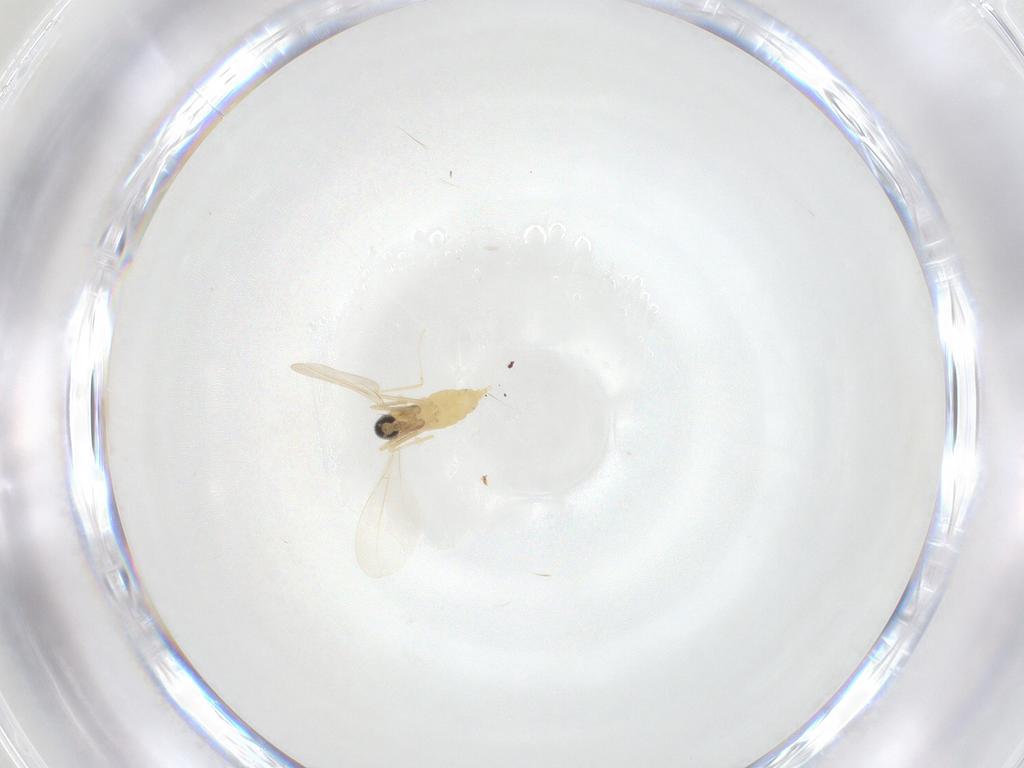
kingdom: Animalia
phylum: Arthropoda
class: Insecta
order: Diptera
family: Cecidomyiidae
